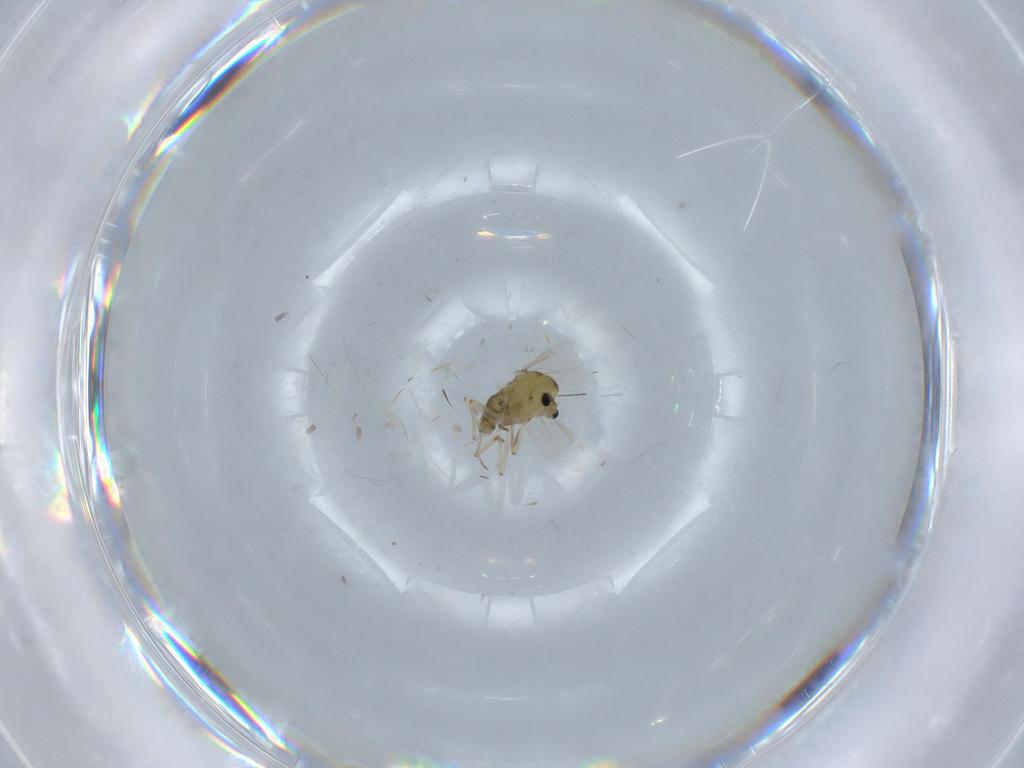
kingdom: Animalia
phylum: Arthropoda
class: Insecta
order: Diptera
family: Chironomidae
